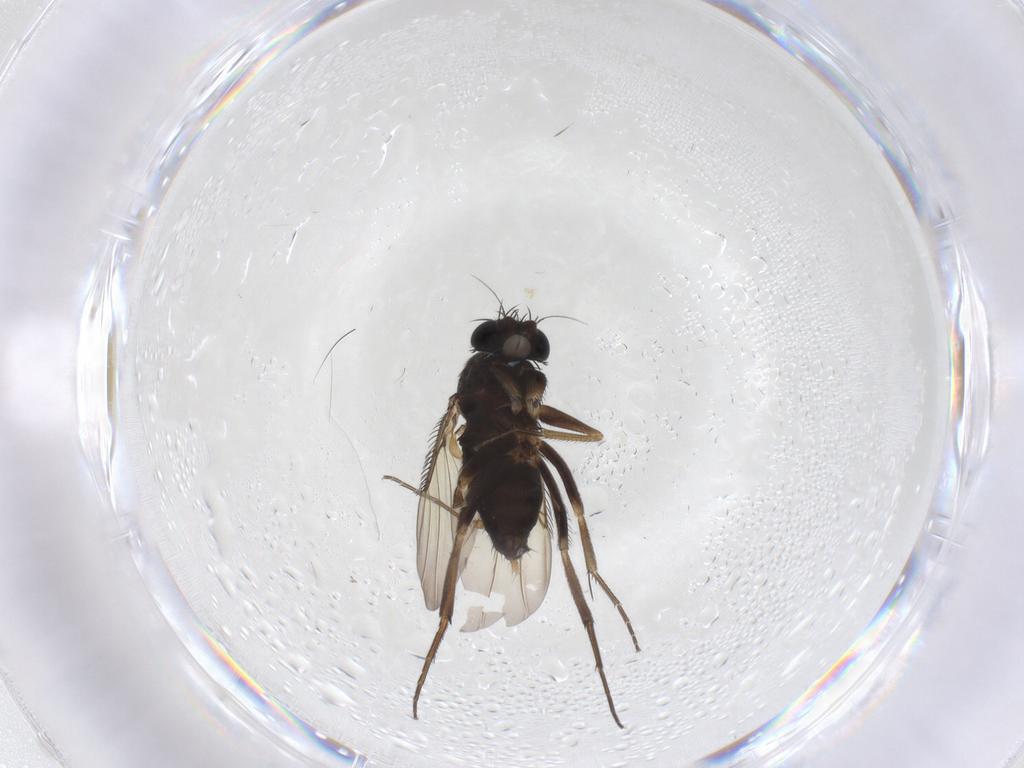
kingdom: Animalia
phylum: Arthropoda
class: Insecta
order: Diptera
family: Phoridae
